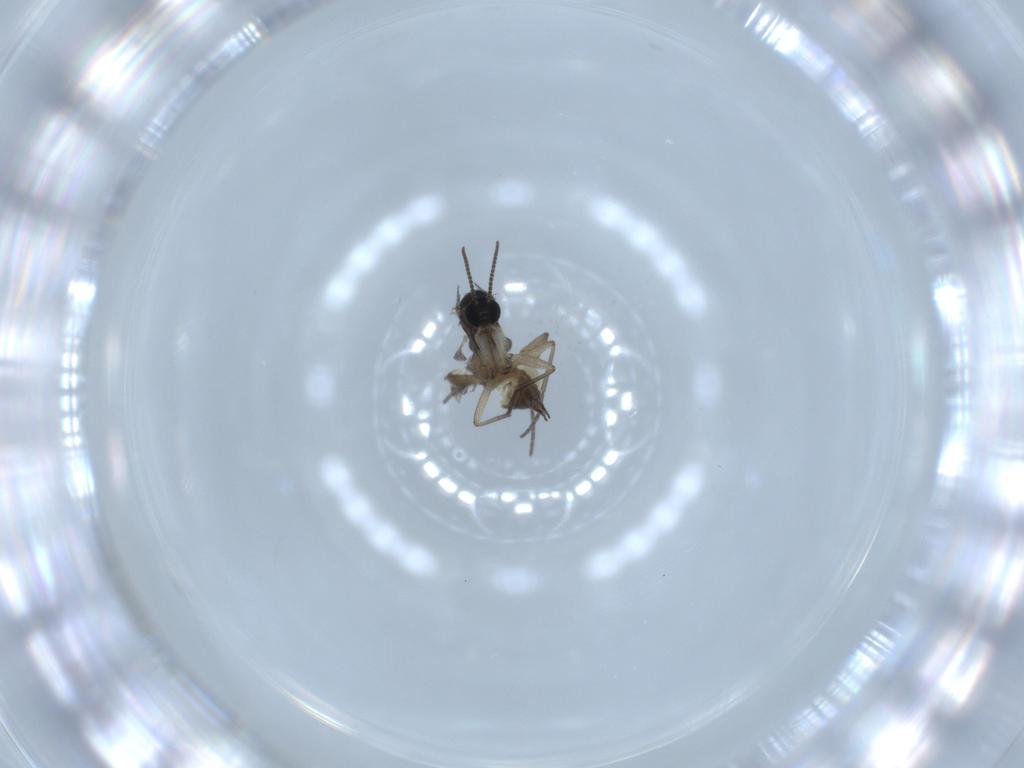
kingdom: Animalia
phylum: Arthropoda
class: Insecta
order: Diptera
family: Sciaridae
